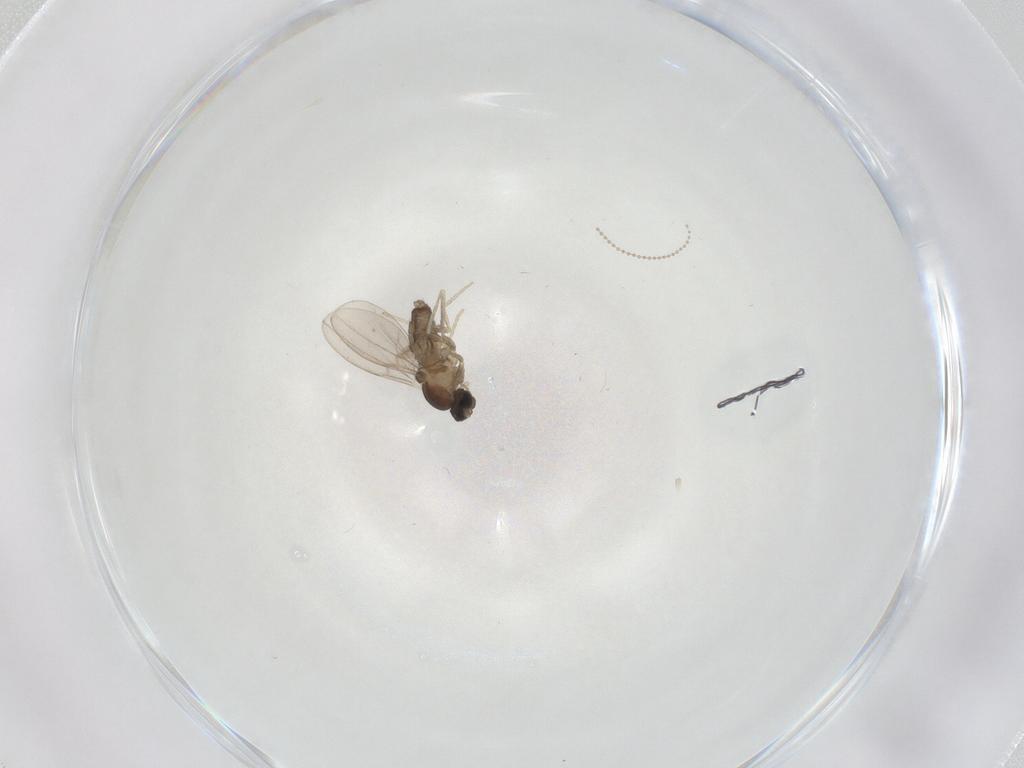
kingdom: Animalia
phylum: Arthropoda
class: Insecta
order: Diptera
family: Cecidomyiidae
